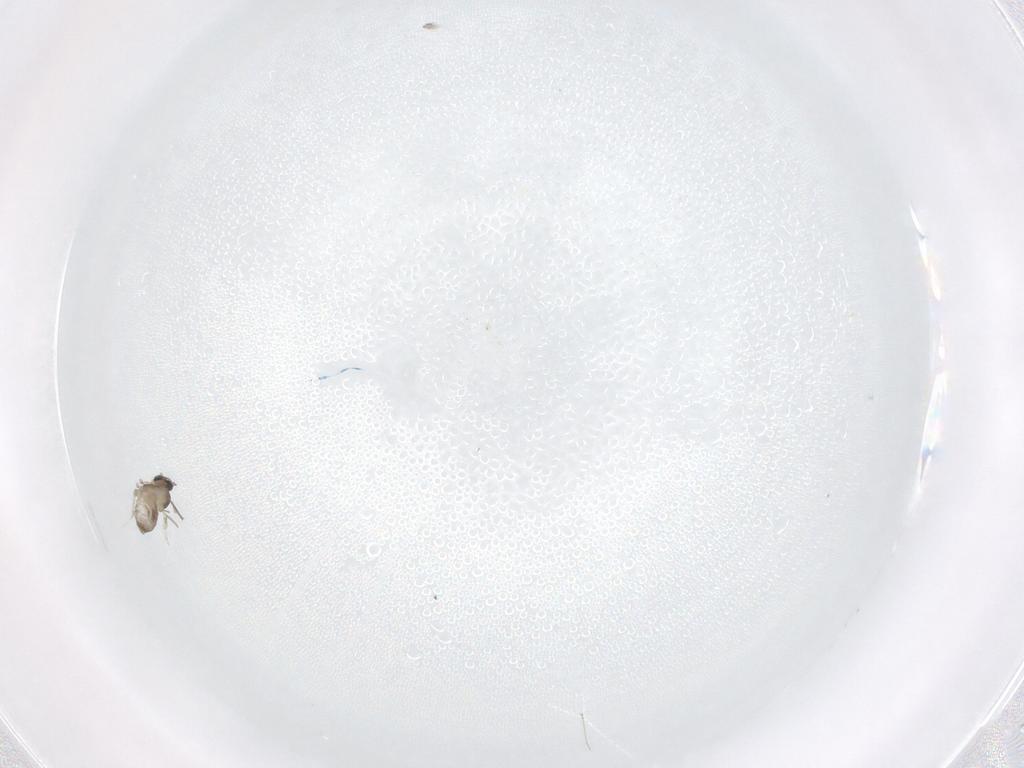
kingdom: Animalia
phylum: Arthropoda
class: Insecta
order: Diptera
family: Cecidomyiidae
